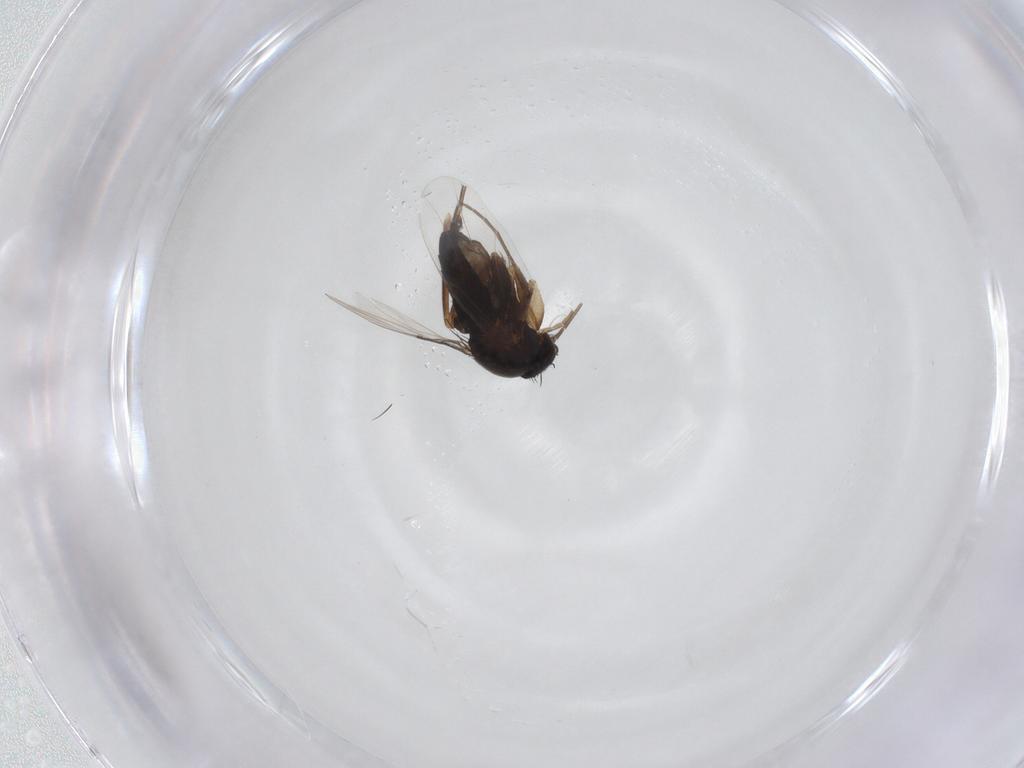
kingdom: Animalia
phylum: Arthropoda
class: Insecta
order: Diptera
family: Phoridae
